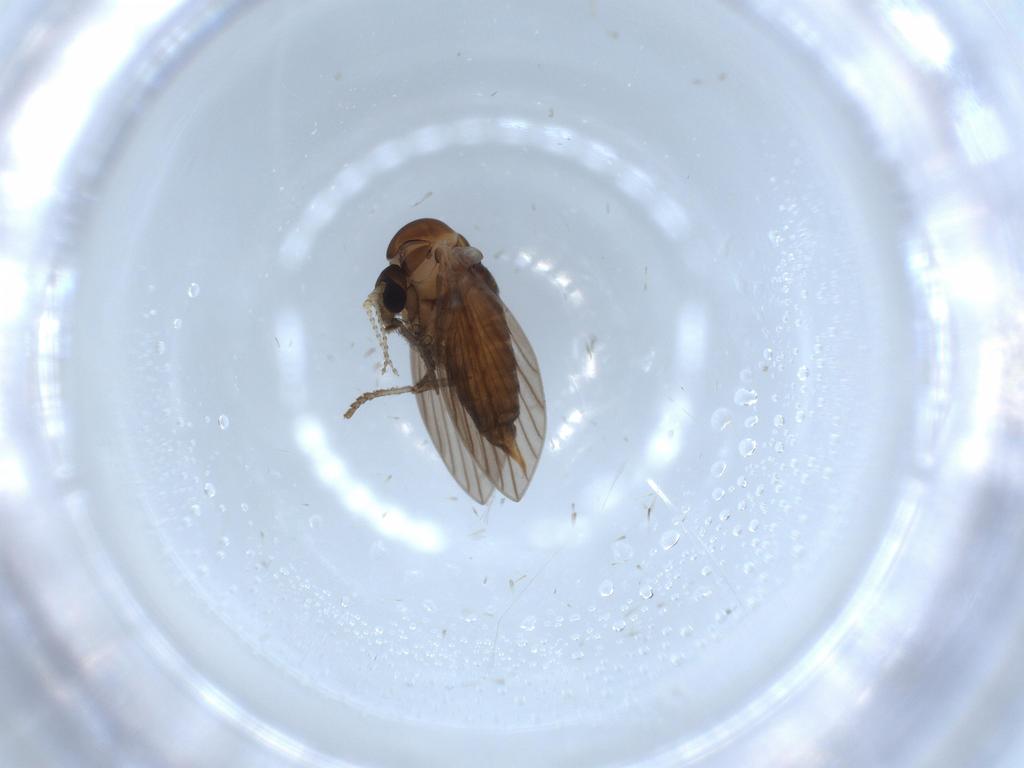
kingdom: Animalia
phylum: Arthropoda
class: Insecta
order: Diptera
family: Psychodidae
